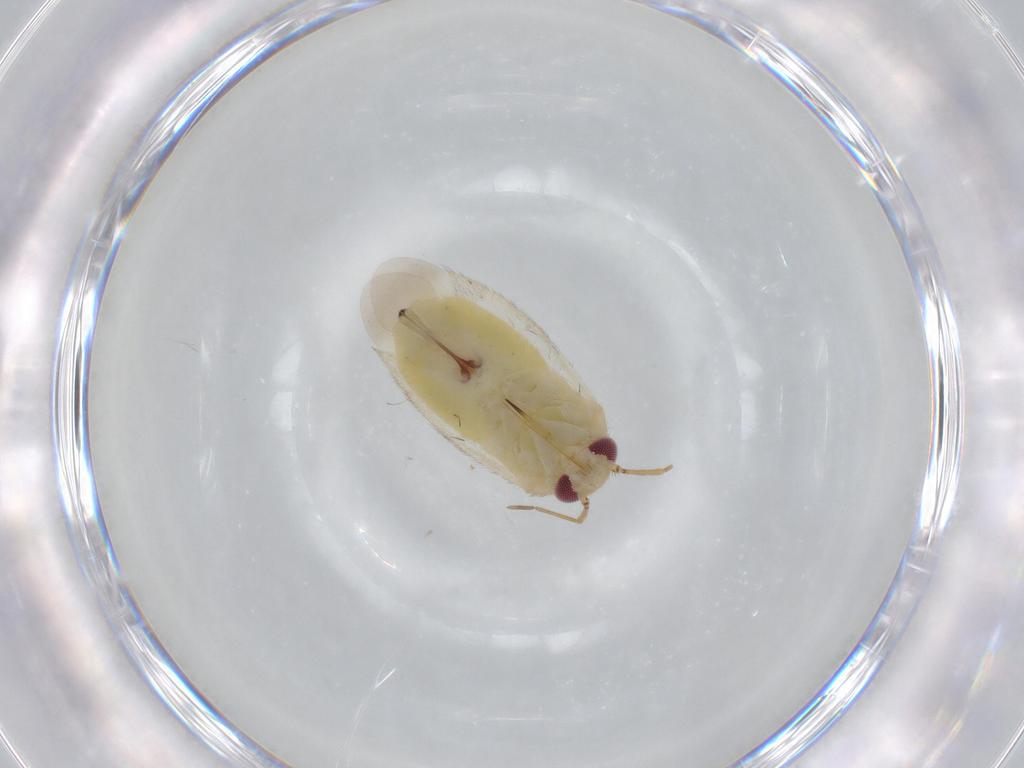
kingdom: Animalia
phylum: Arthropoda
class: Insecta
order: Hemiptera
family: Miridae
